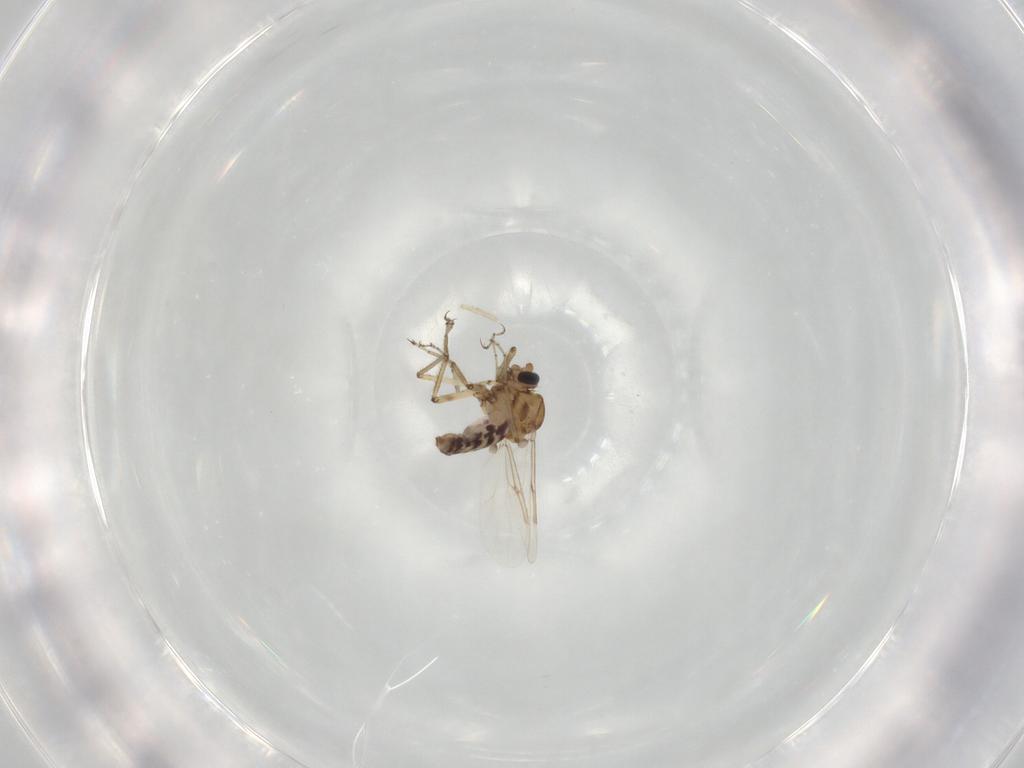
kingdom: Animalia
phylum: Arthropoda
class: Insecta
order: Diptera
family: Ceratopogonidae
